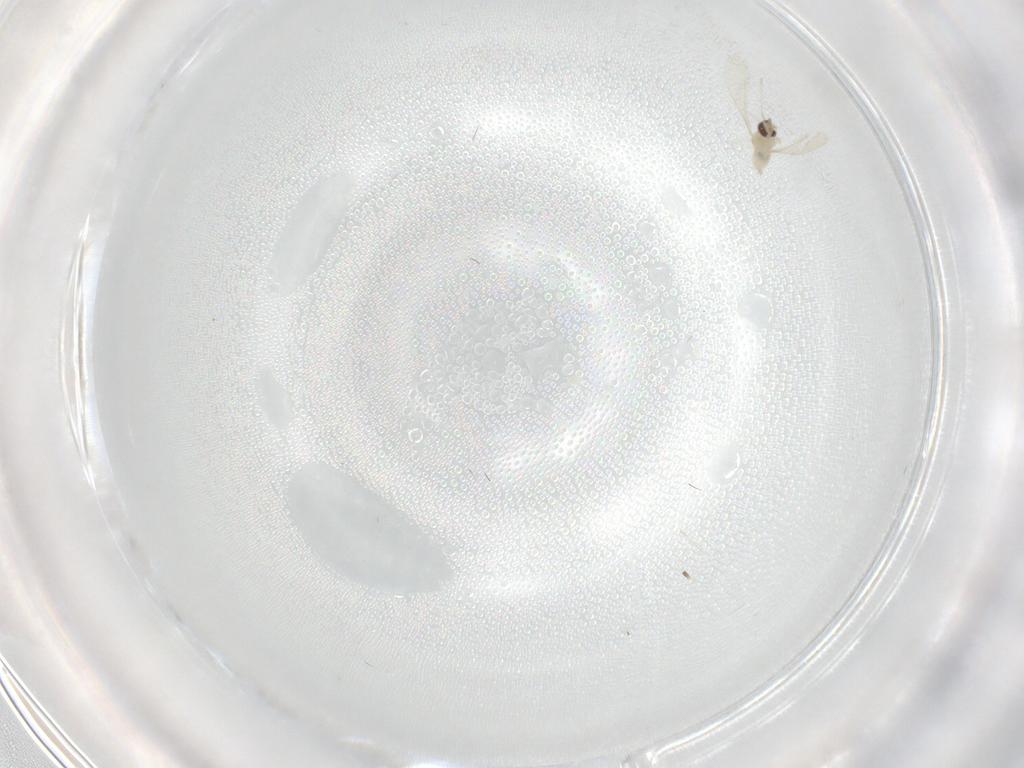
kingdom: Animalia
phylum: Arthropoda
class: Insecta
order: Diptera
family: Cecidomyiidae
